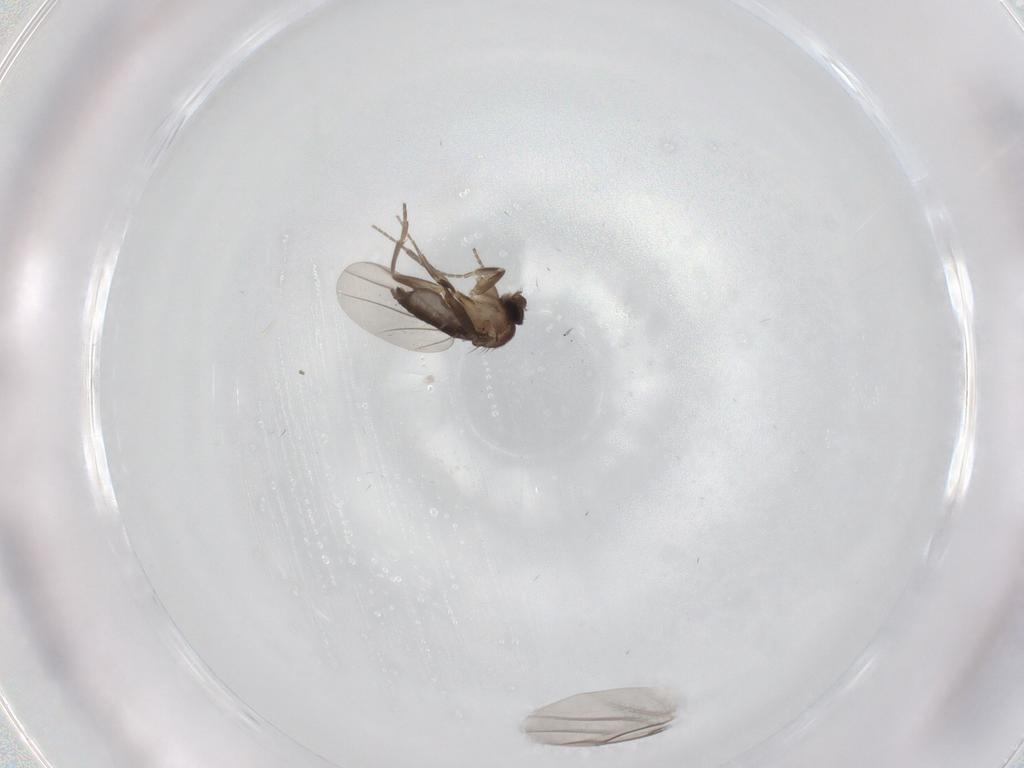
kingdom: Animalia
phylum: Arthropoda
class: Insecta
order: Diptera
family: Phoridae
